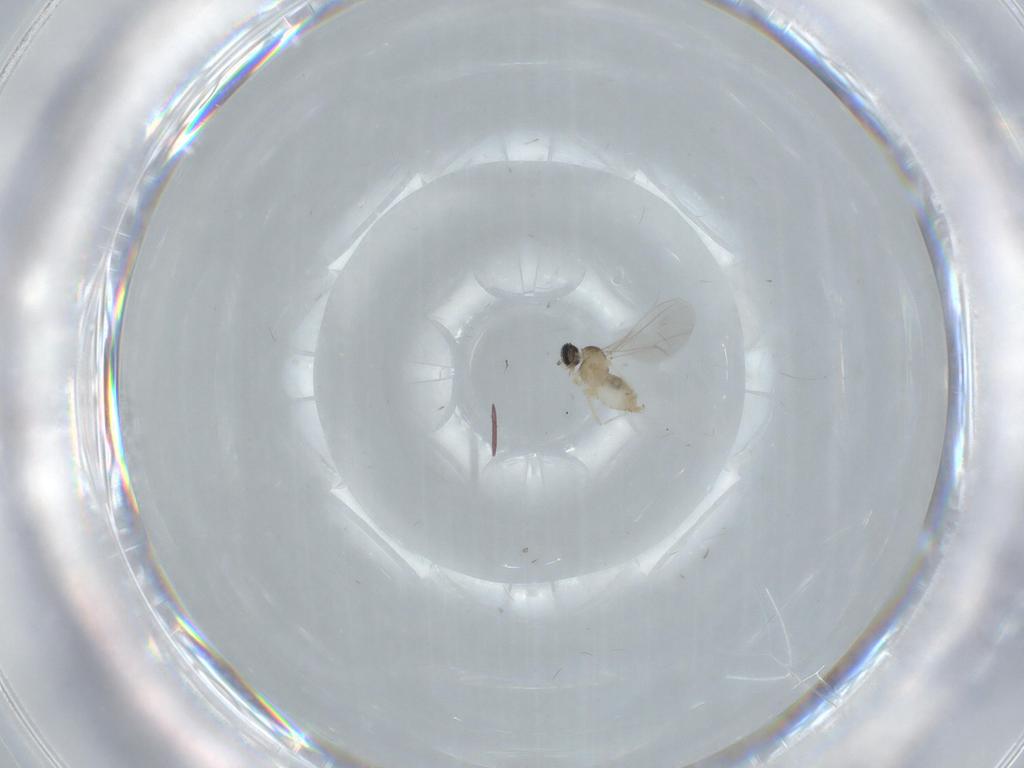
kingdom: Animalia
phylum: Arthropoda
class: Insecta
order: Diptera
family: Cecidomyiidae
